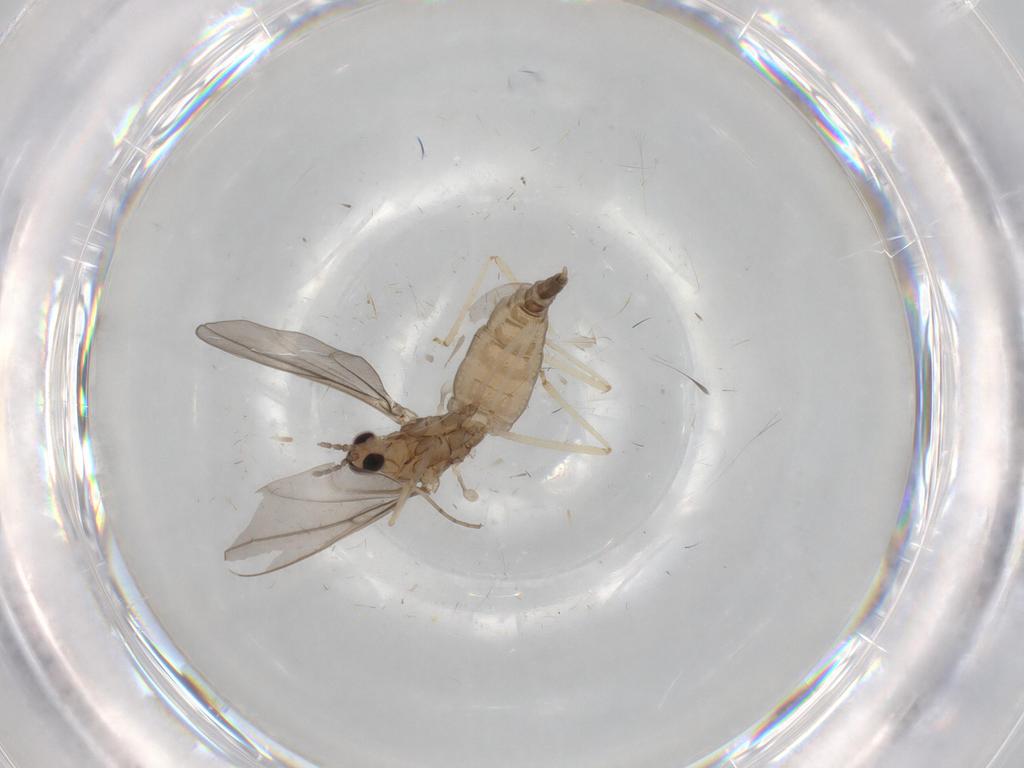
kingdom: Animalia
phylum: Arthropoda
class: Insecta
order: Diptera
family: Cecidomyiidae
